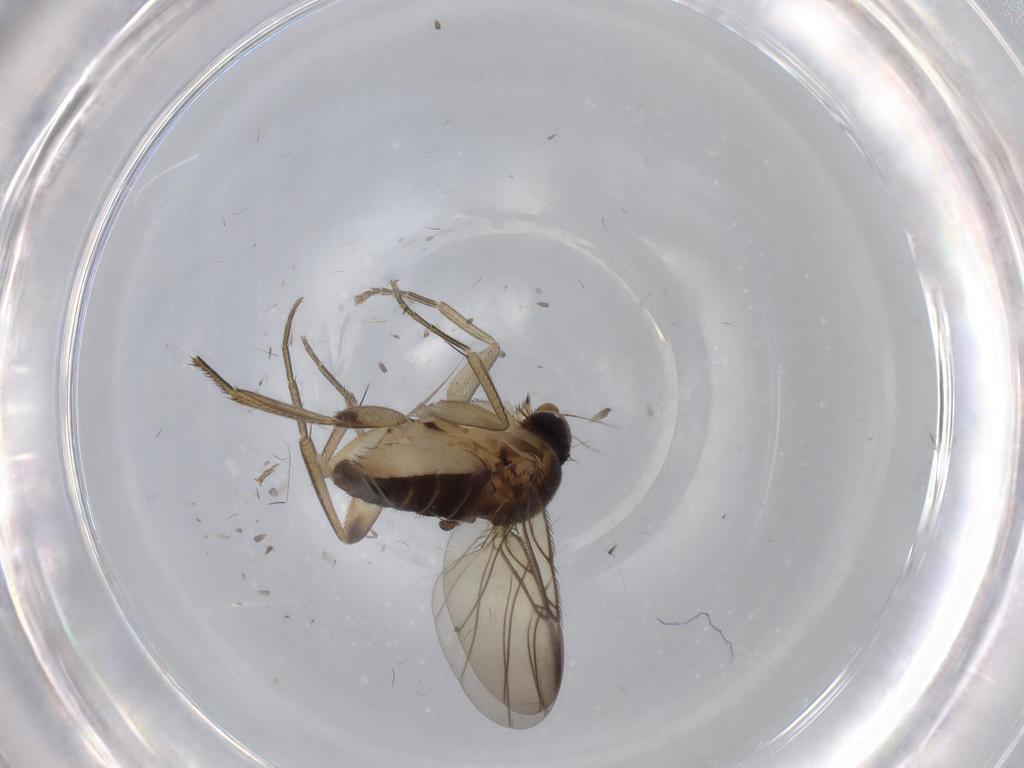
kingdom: Animalia
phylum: Arthropoda
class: Insecta
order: Diptera
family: Phoridae
